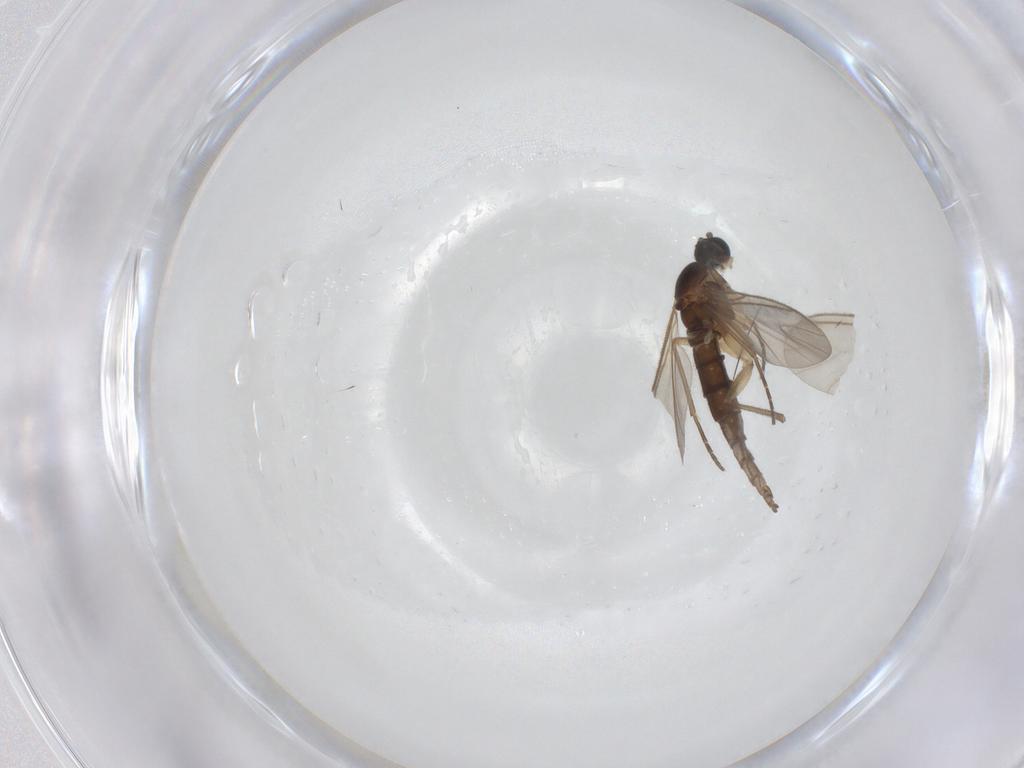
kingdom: Animalia
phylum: Arthropoda
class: Insecta
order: Diptera
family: Sciaridae
